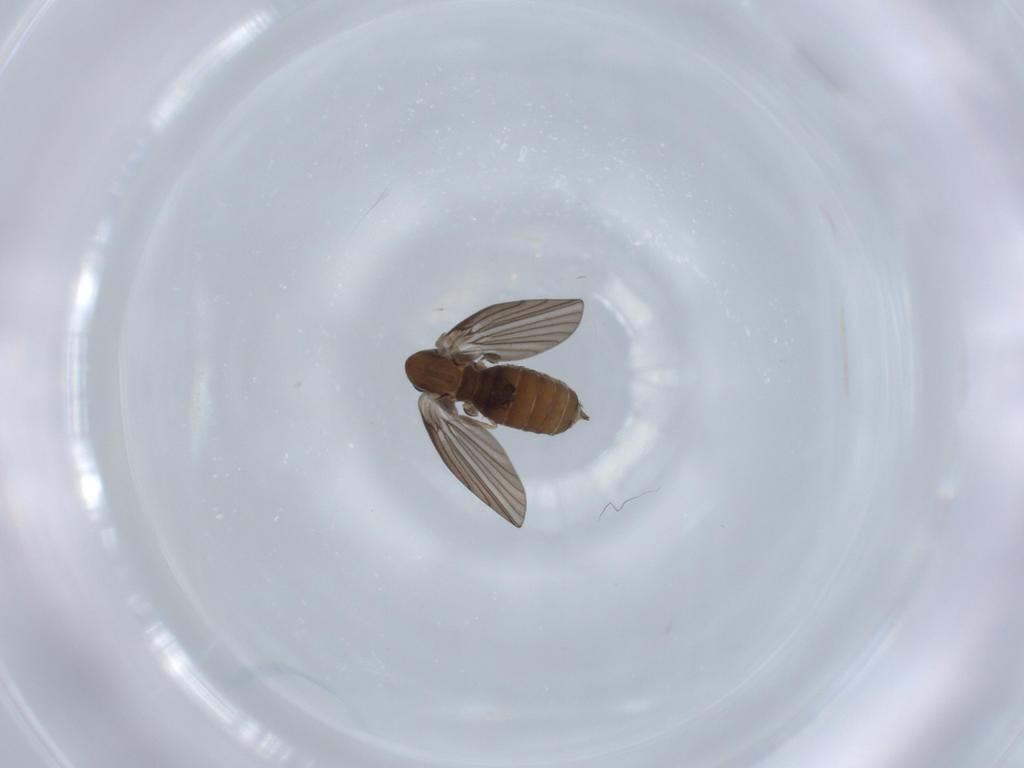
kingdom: Animalia
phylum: Arthropoda
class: Insecta
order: Diptera
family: Psychodidae
